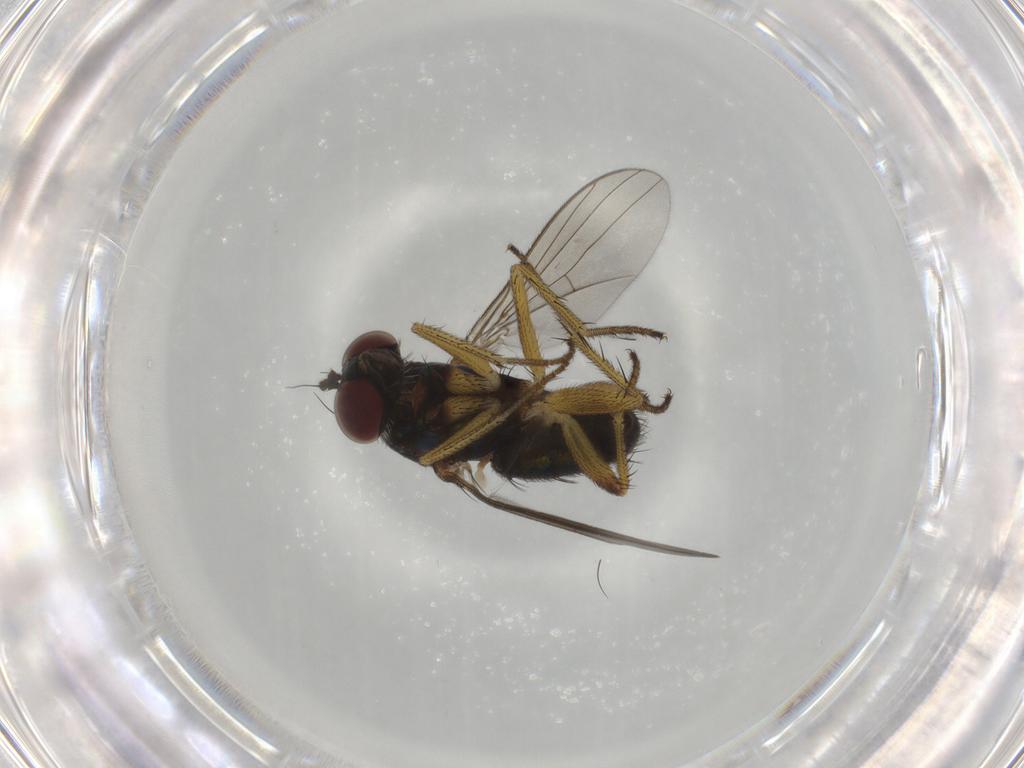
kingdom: Animalia
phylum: Arthropoda
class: Insecta
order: Diptera
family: Dolichopodidae
